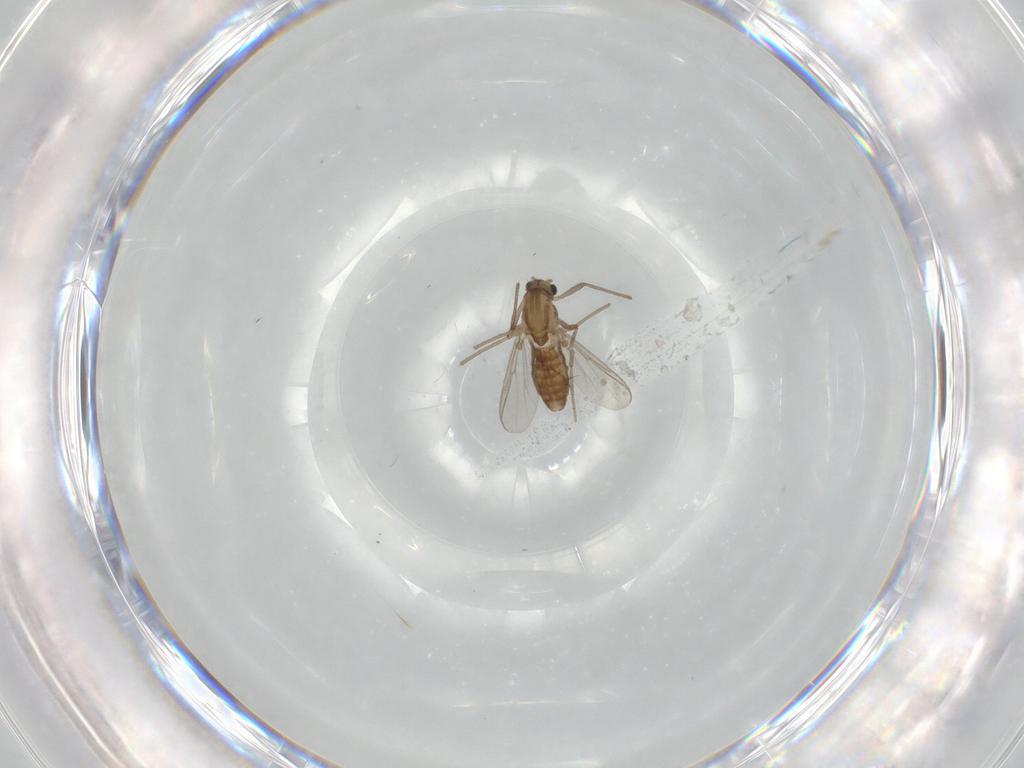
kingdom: Animalia
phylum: Arthropoda
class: Insecta
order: Diptera
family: Chironomidae
